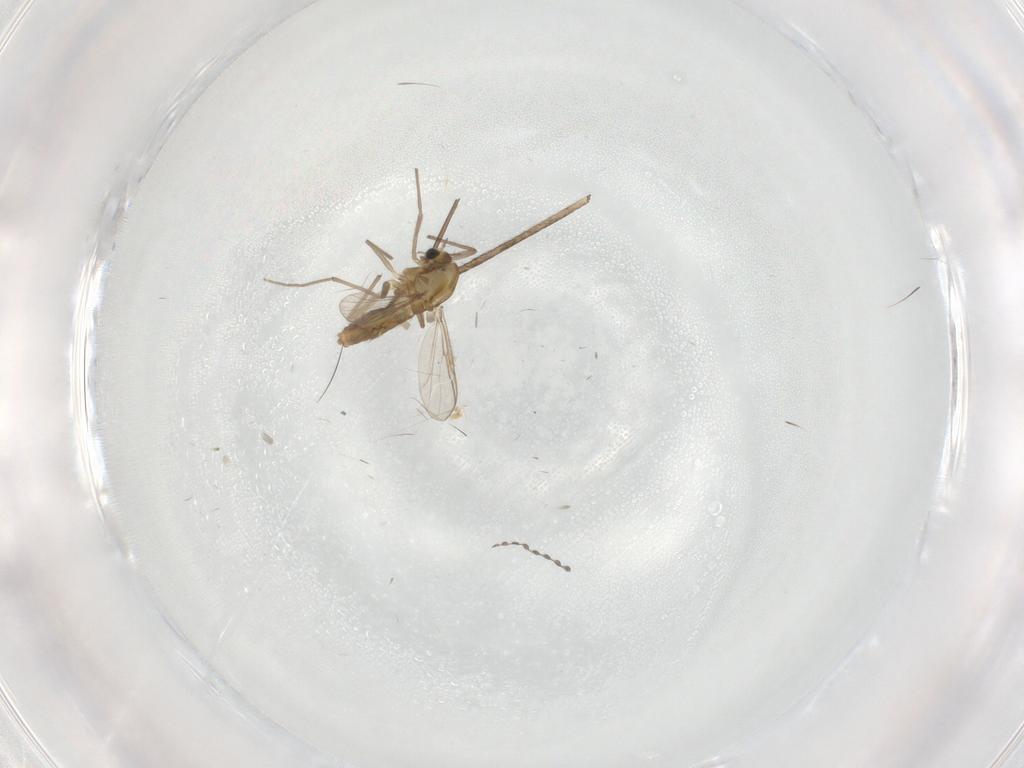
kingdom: Animalia
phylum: Arthropoda
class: Insecta
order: Diptera
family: Chironomidae
